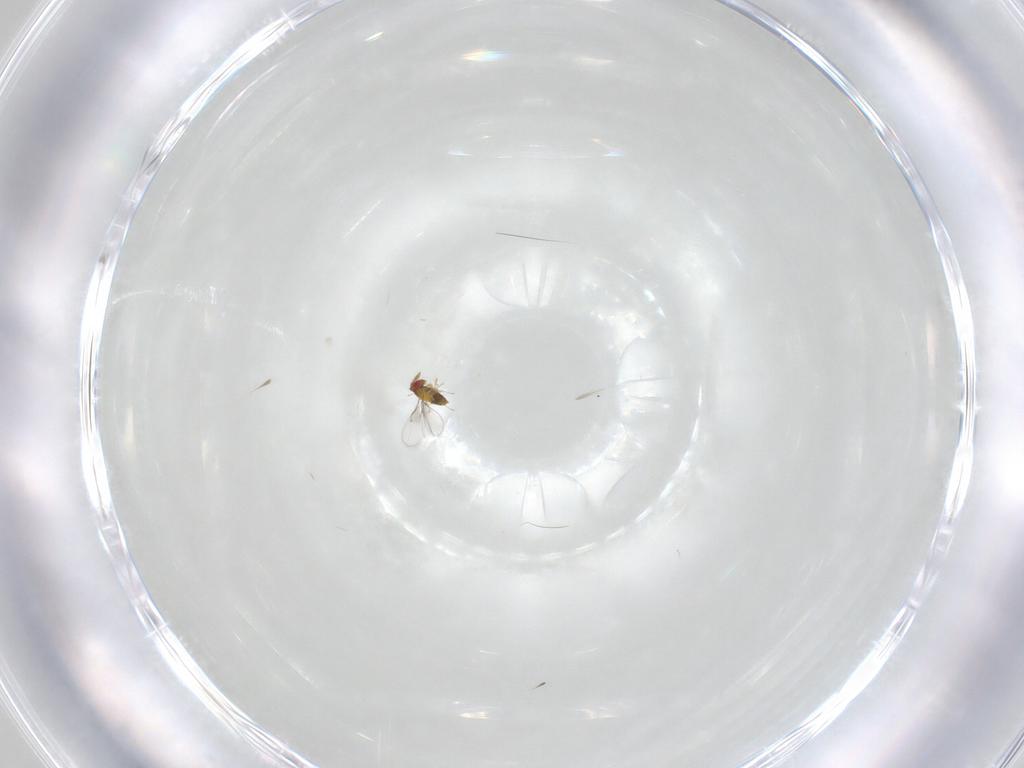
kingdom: Animalia
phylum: Arthropoda
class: Insecta
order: Hymenoptera
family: Trichogrammatidae
